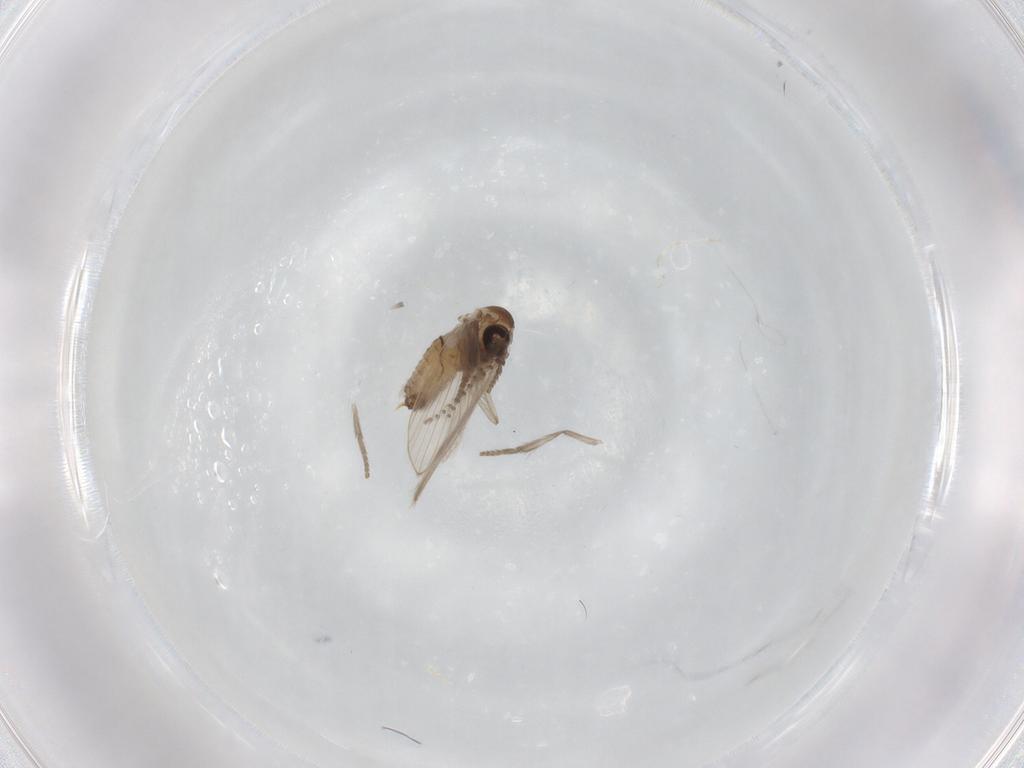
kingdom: Animalia
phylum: Arthropoda
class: Insecta
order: Diptera
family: Psychodidae
